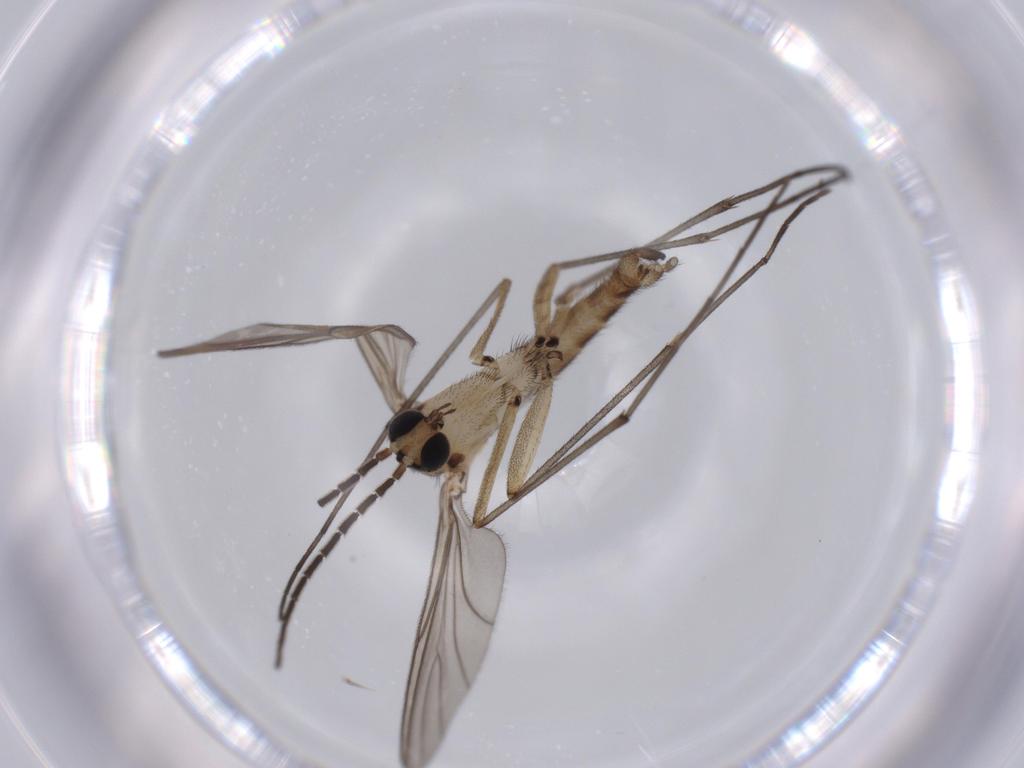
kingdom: Animalia
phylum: Arthropoda
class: Insecta
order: Diptera
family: Sciaridae
